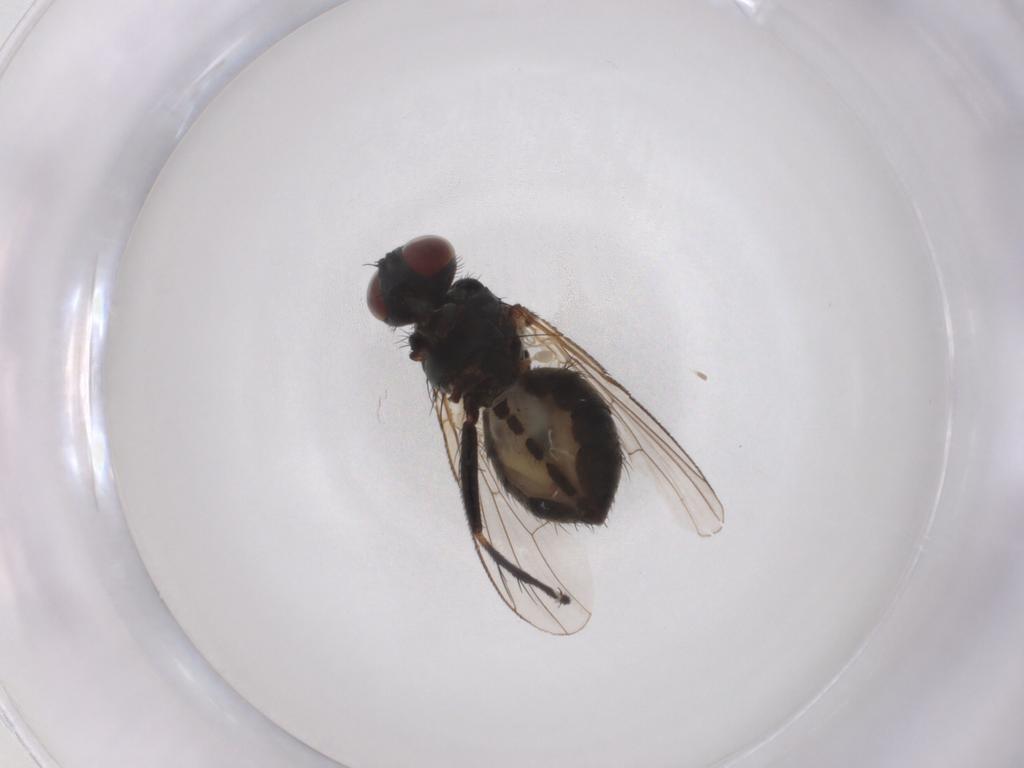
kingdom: Animalia
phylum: Arthropoda
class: Insecta
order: Diptera
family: Muscidae
